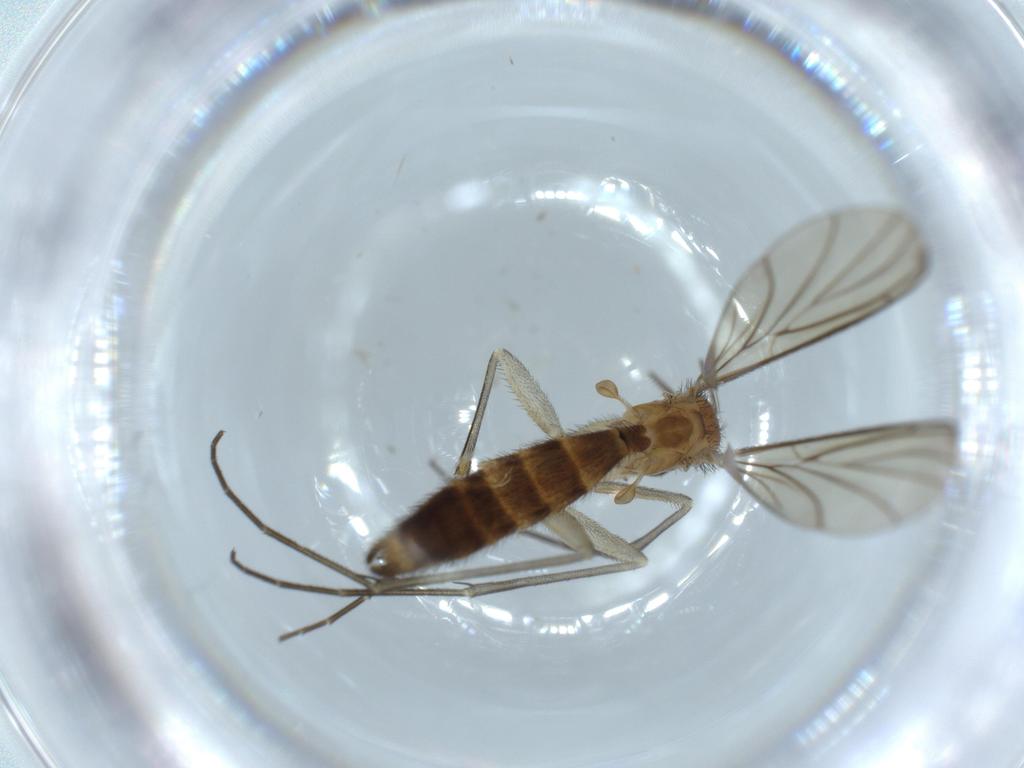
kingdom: Animalia
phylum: Arthropoda
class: Insecta
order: Diptera
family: Keroplatidae
